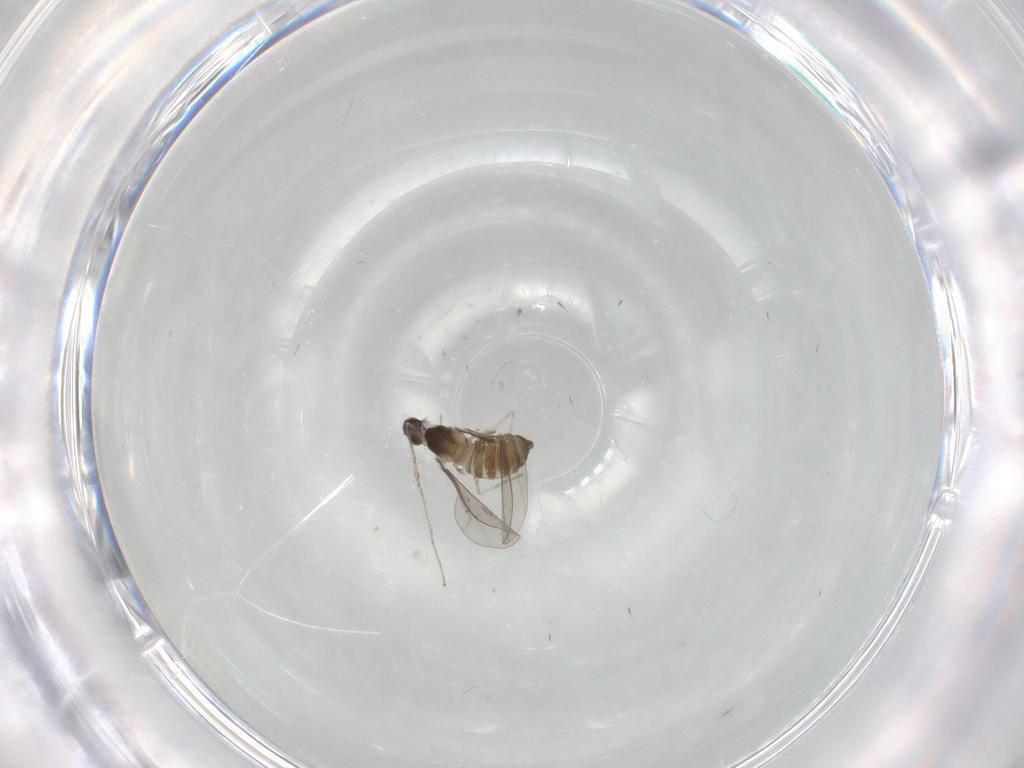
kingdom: Animalia
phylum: Arthropoda
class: Insecta
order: Diptera
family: Cecidomyiidae
